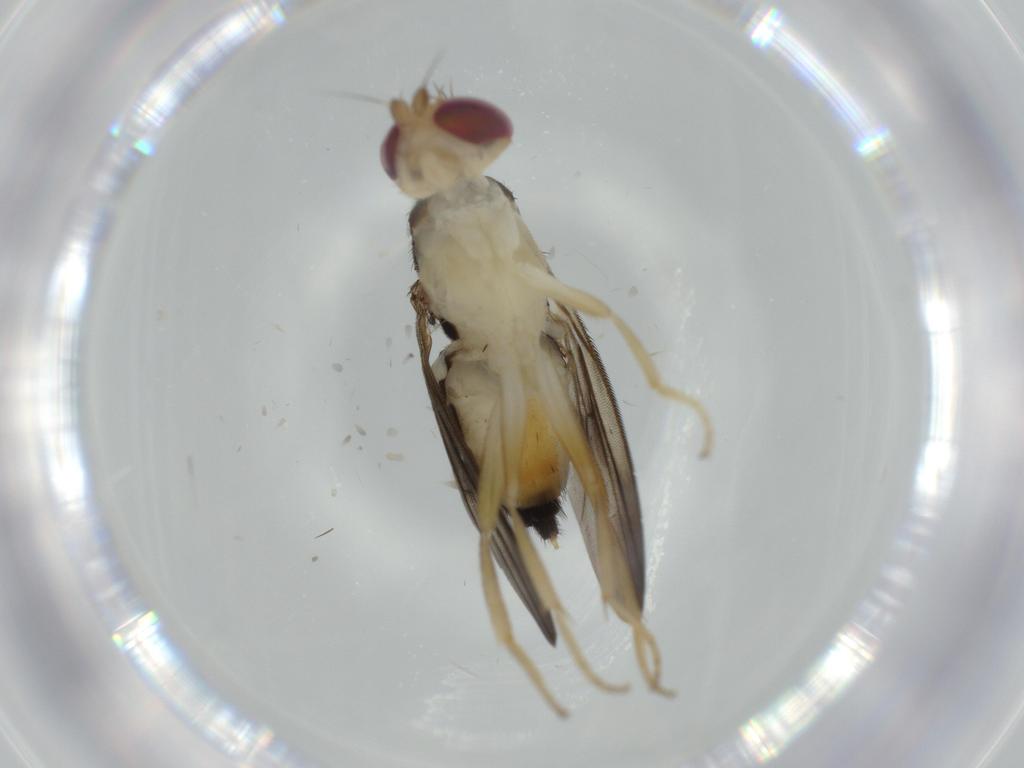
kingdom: Animalia
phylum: Arthropoda
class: Insecta
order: Diptera
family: Clusiidae
